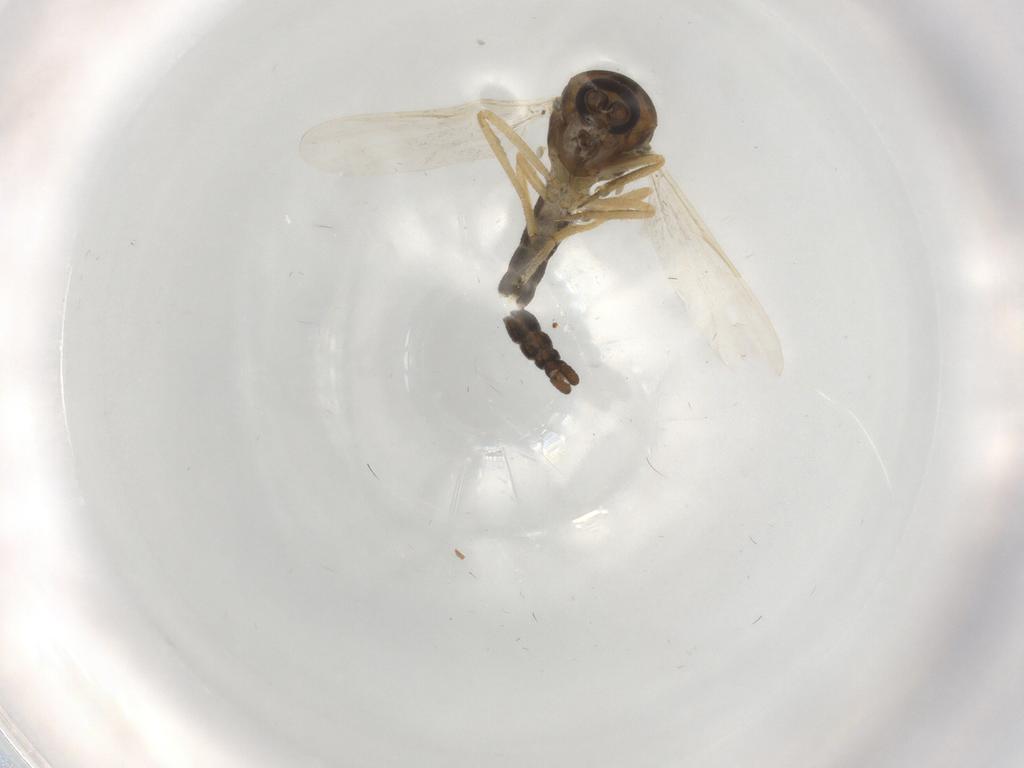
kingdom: Animalia
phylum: Arthropoda
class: Insecta
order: Diptera
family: Ceratopogonidae
